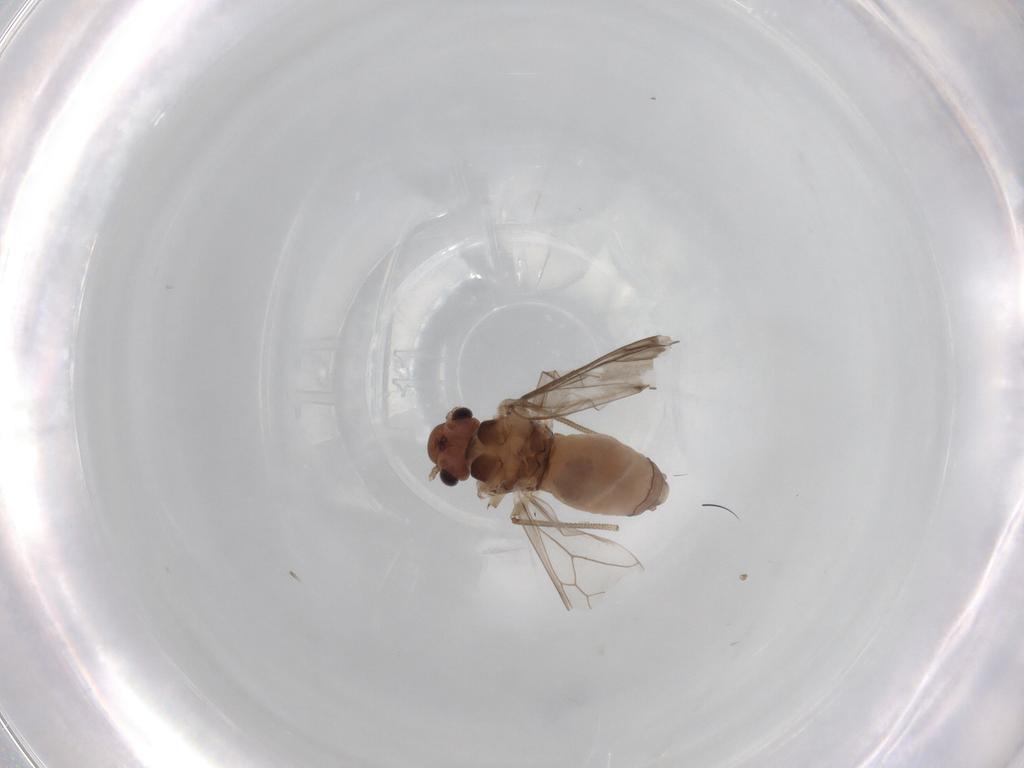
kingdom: Animalia
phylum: Arthropoda
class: Insecta
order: Psocodea
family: Peripsocidae
